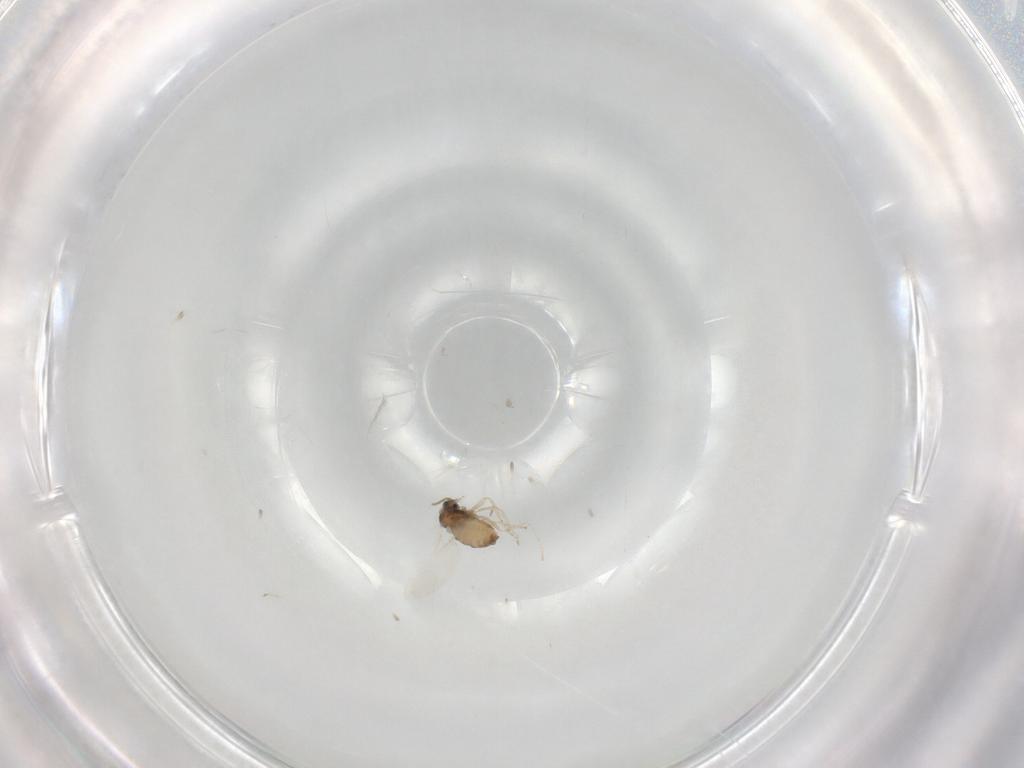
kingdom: Animalia
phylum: Arthropoda
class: Insecta
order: Diptera
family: Cecidomyiidae
